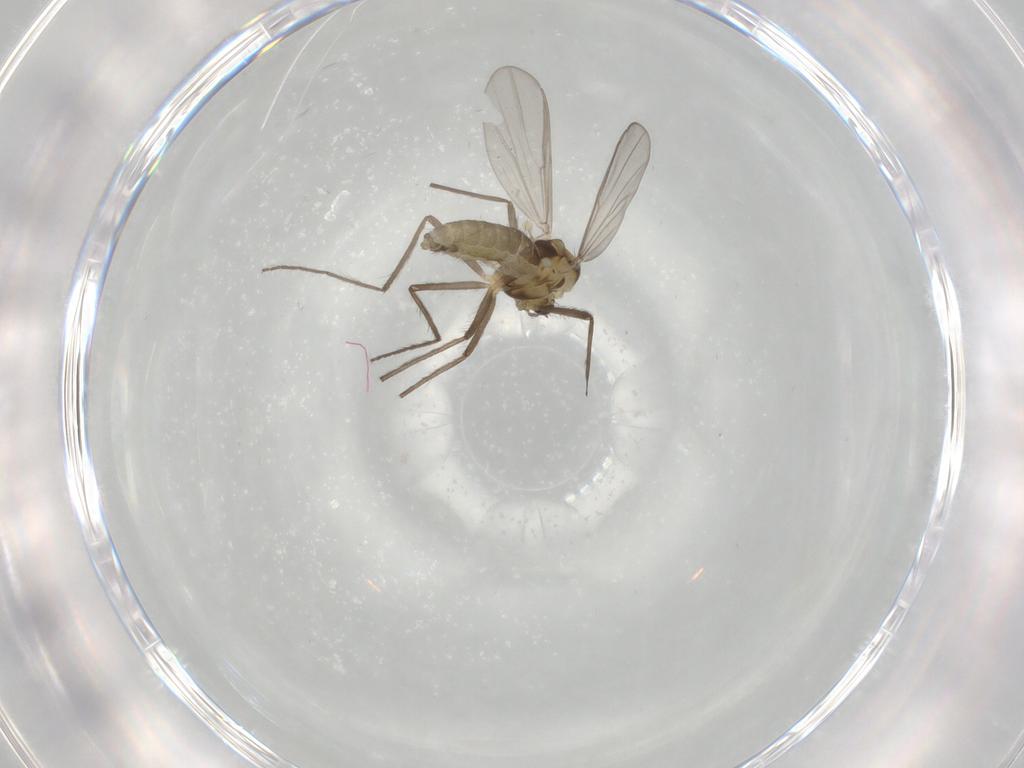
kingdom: Animalia
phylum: Arthropoda
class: Insecta
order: Diptera
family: Chironomidae
